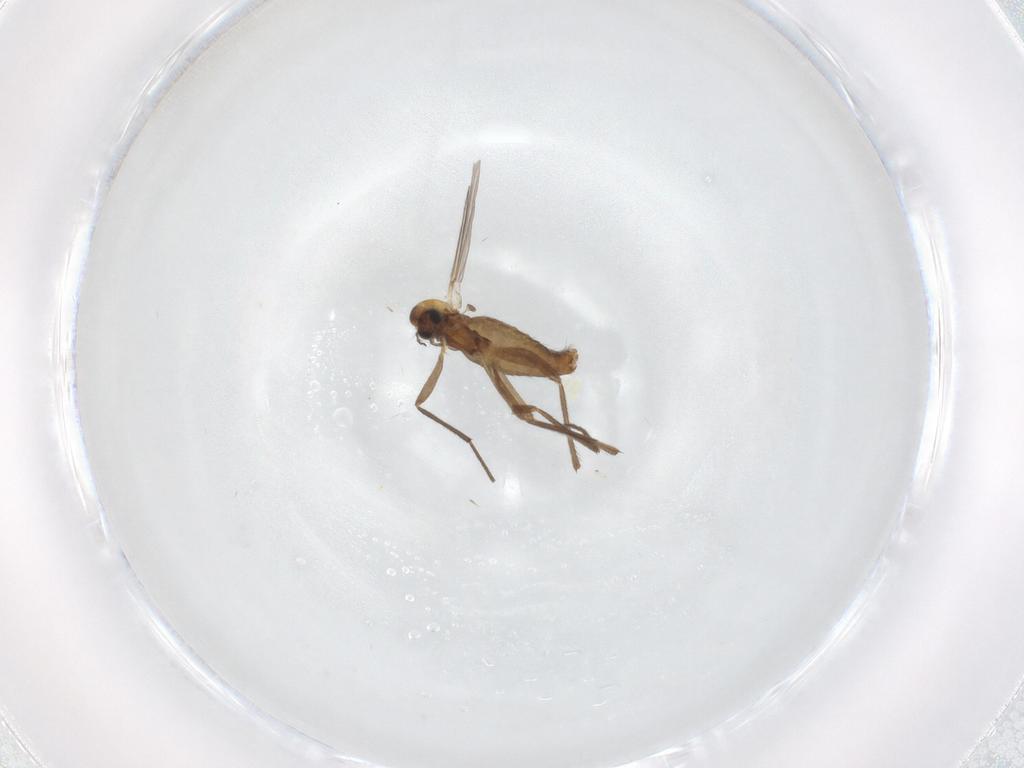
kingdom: Animalia
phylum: Arthropoda
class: Insecta
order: Diptera
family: Chironomidae
